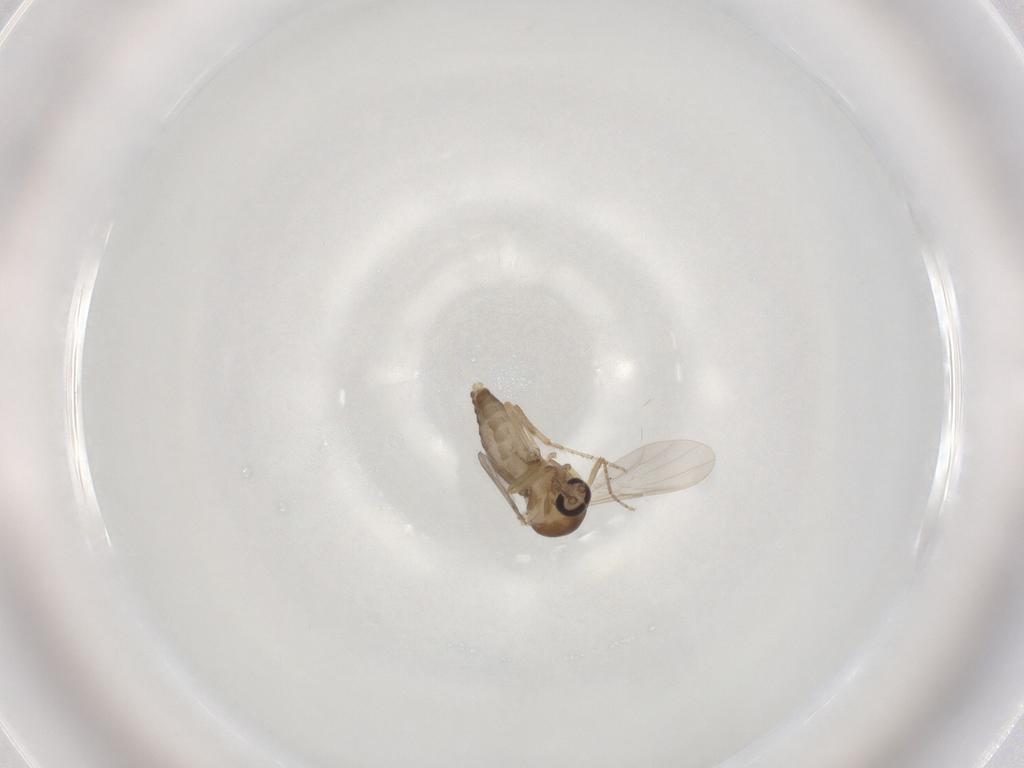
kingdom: Animalia
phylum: Arthropoda
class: Insecta
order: Diptera
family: Ceratopogonidae
